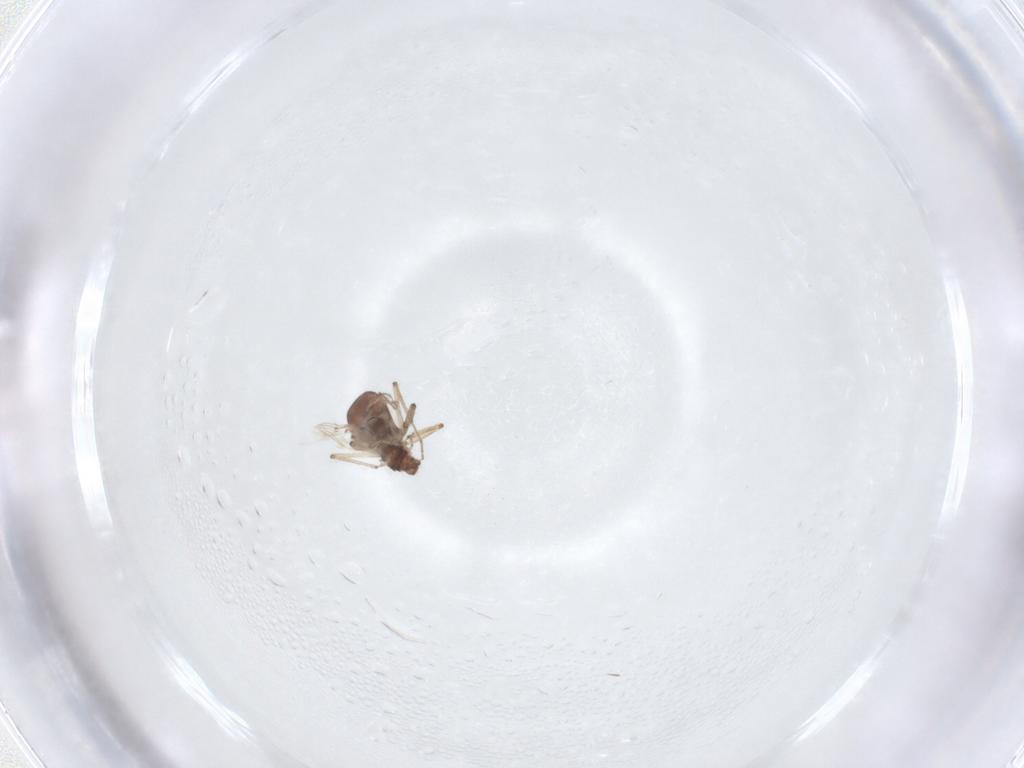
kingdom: Animalia
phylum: Arthropoda
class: Insecta
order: Diptera
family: Ceratopogonidae
